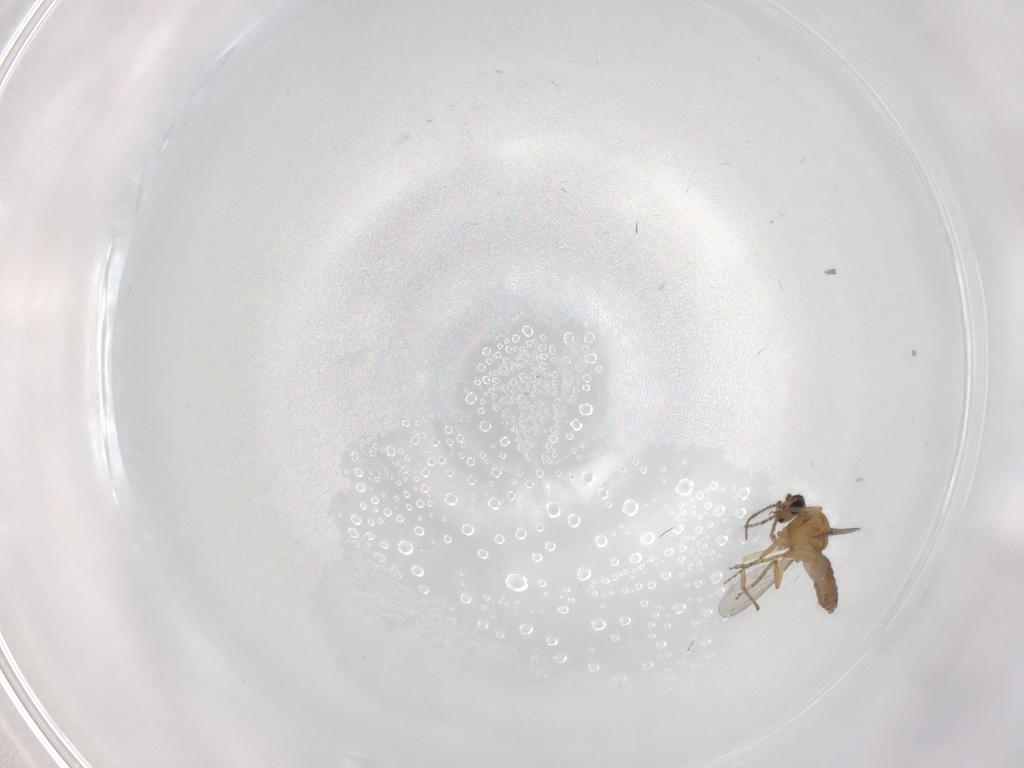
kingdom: Animalia
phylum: Arthropoda
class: Insecta
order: Diptera
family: Ceratopogonidae
